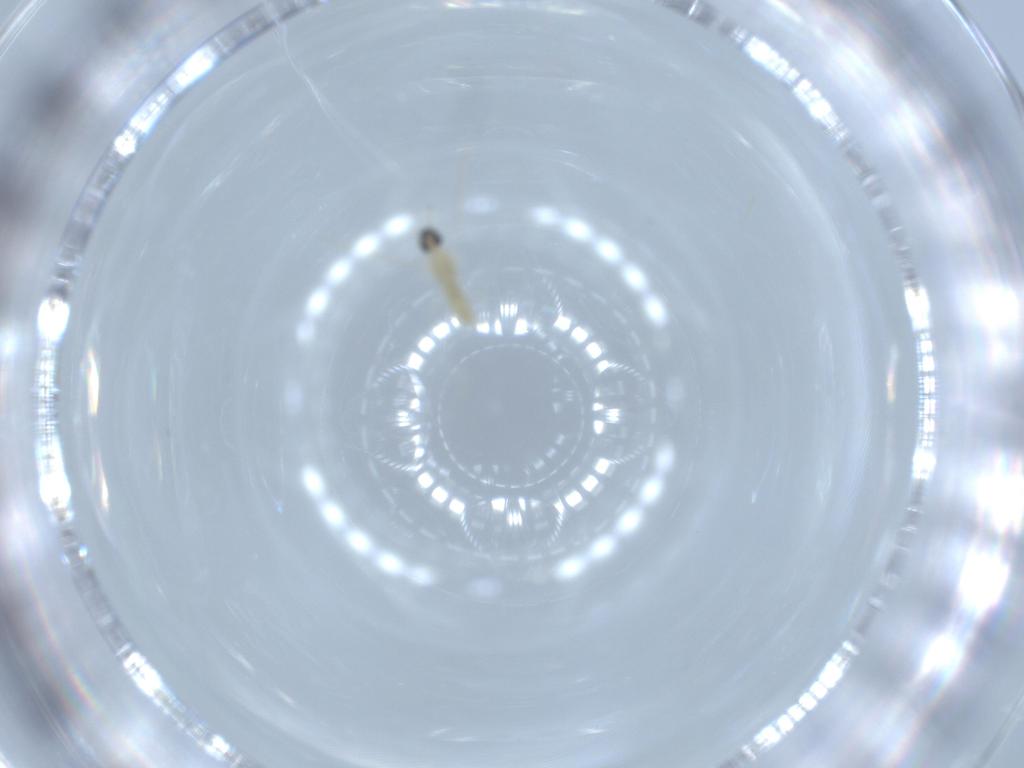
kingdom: Animalia
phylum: Arthropoda
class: Insecta
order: Diptera
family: Cecidomyiidae
